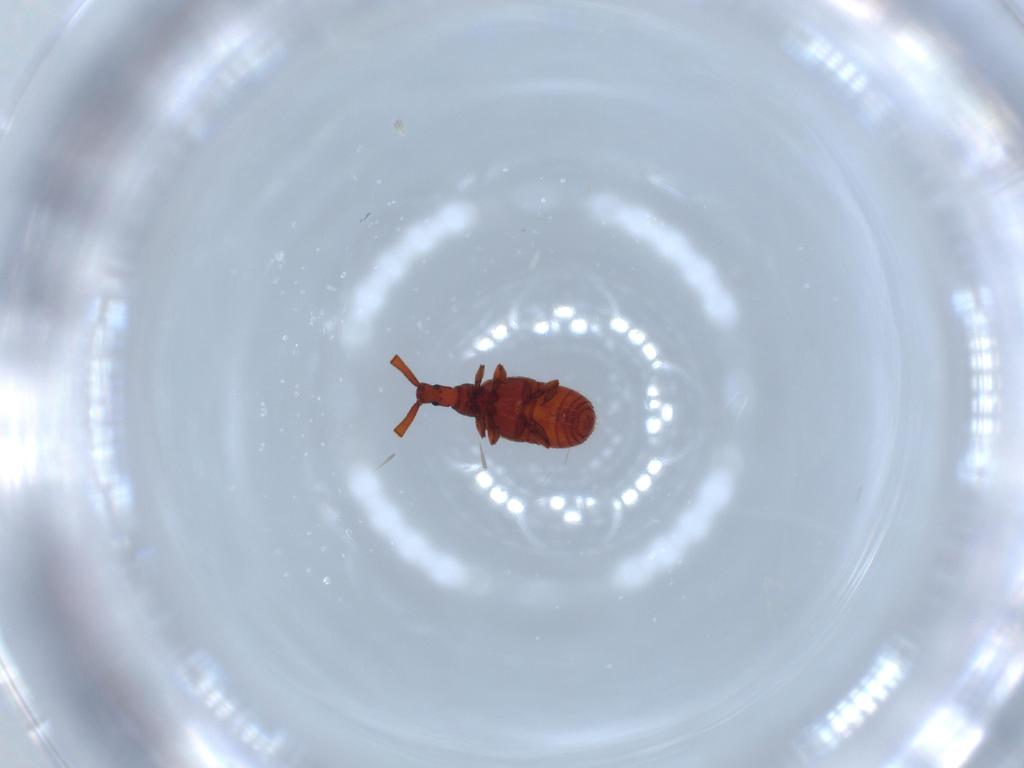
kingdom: Animalia
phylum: Arthropoda
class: Insecta
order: Coleoptera
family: Staphylinidae
